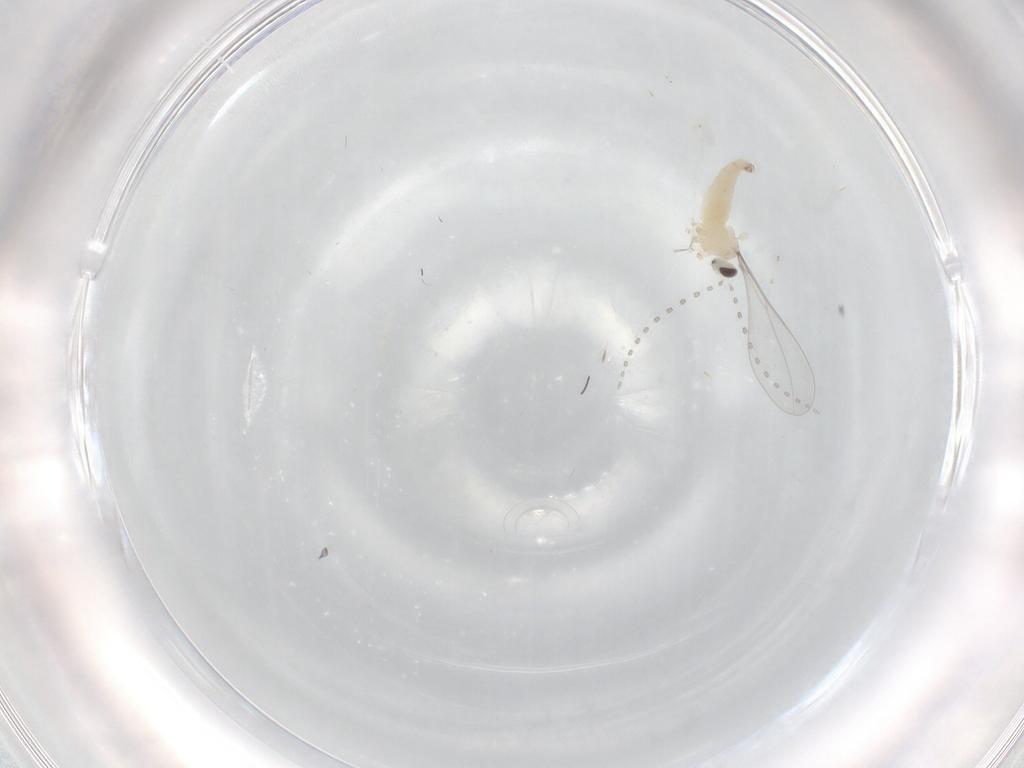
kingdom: Animalia
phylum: Arthropoda
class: Insecta
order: Diptera
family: Cecidomyiidae
